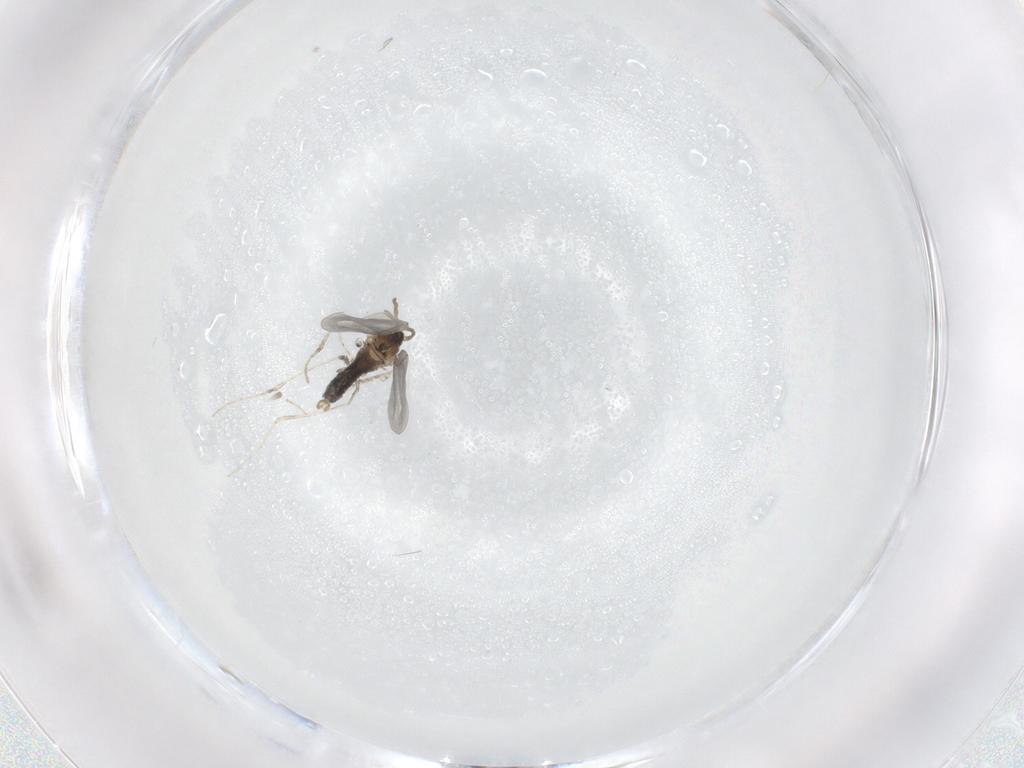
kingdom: Animalia
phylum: Arthropoda
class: Insecta
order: Diptera
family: Cecidomyiidae
